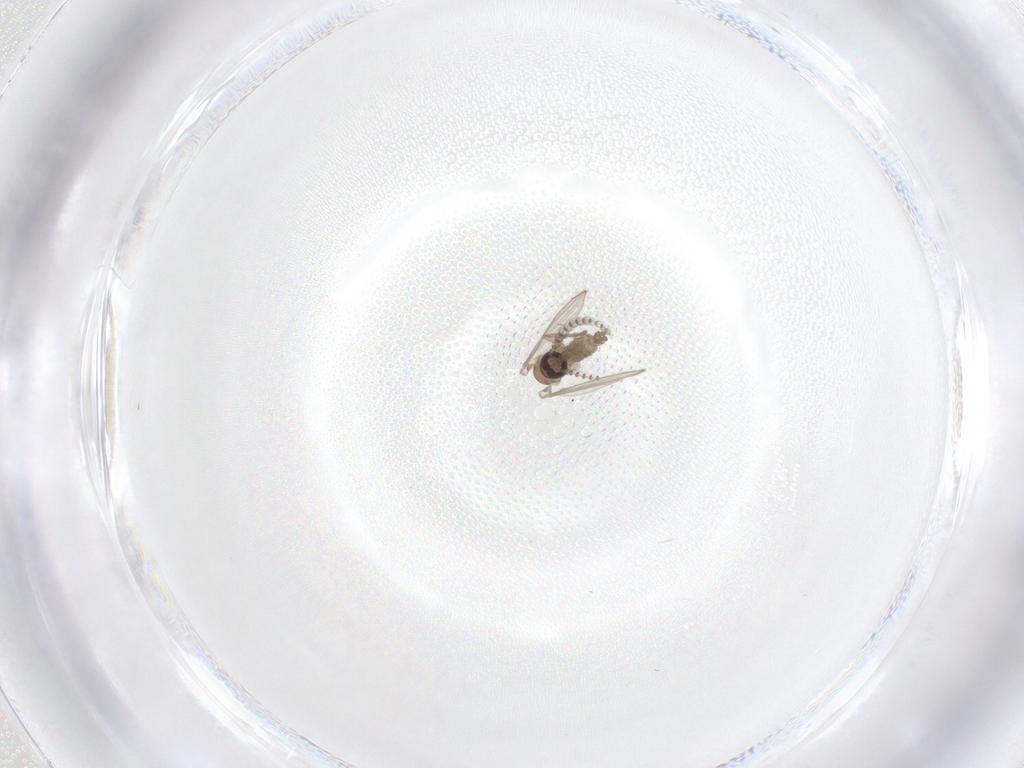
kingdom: Animalia
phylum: Arthropoda
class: Insecta
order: Diptera
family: Psychodidae
